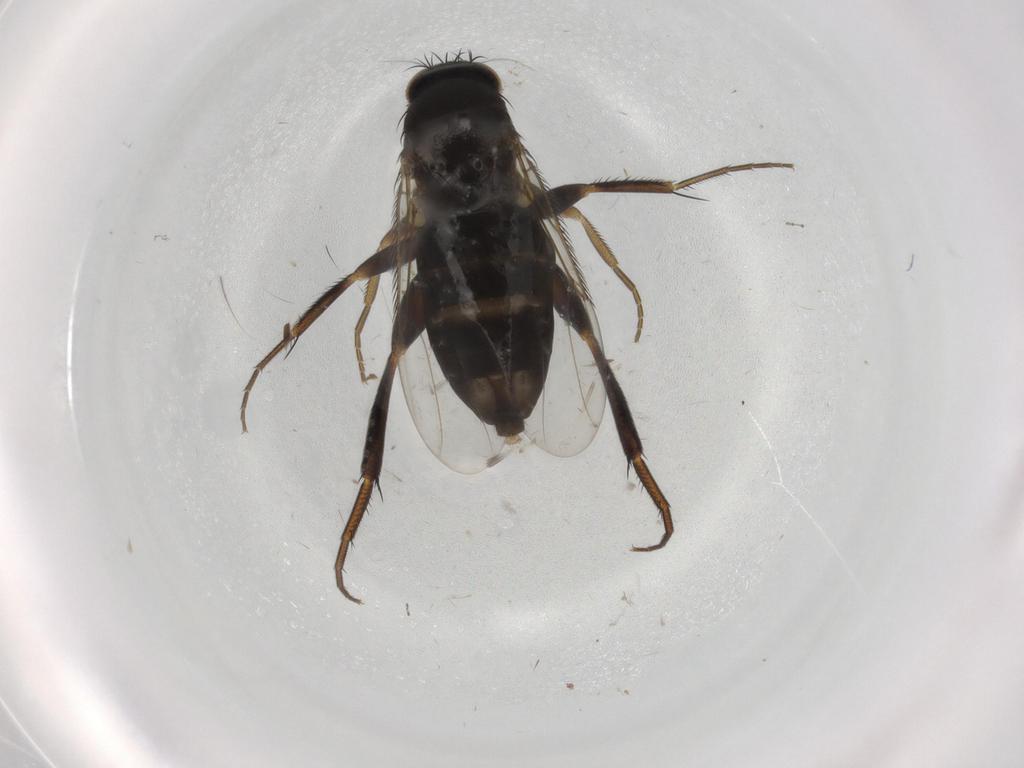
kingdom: Animalia
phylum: Arthropoda
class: Insecta
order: Diptera
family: Phoridae
